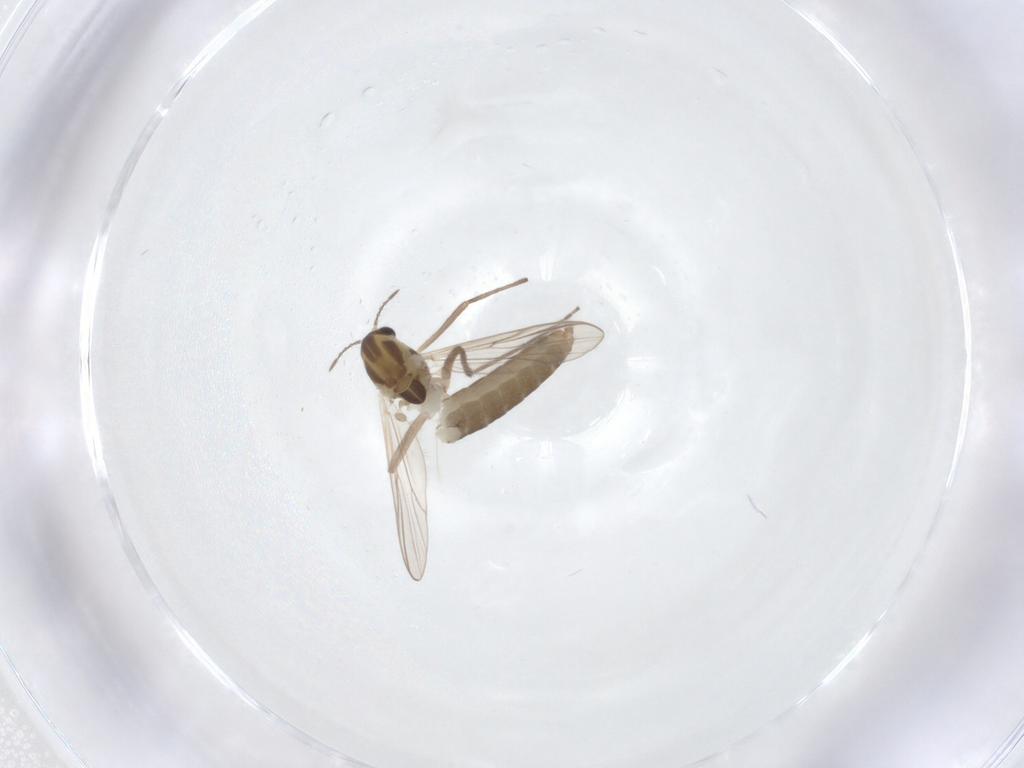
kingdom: Animalia
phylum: Arthropoda
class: Insecta
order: Diptera
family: Chironomidae
